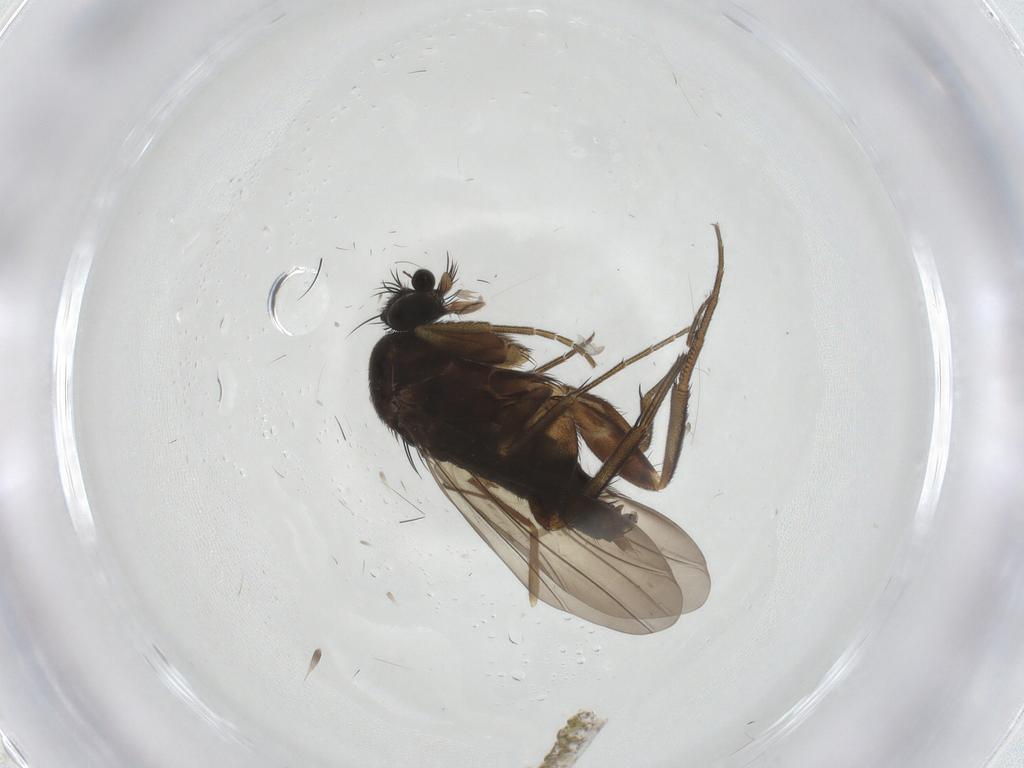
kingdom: Animalia
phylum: Arthropoda
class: Insecta
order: Diptera
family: Phoridae
